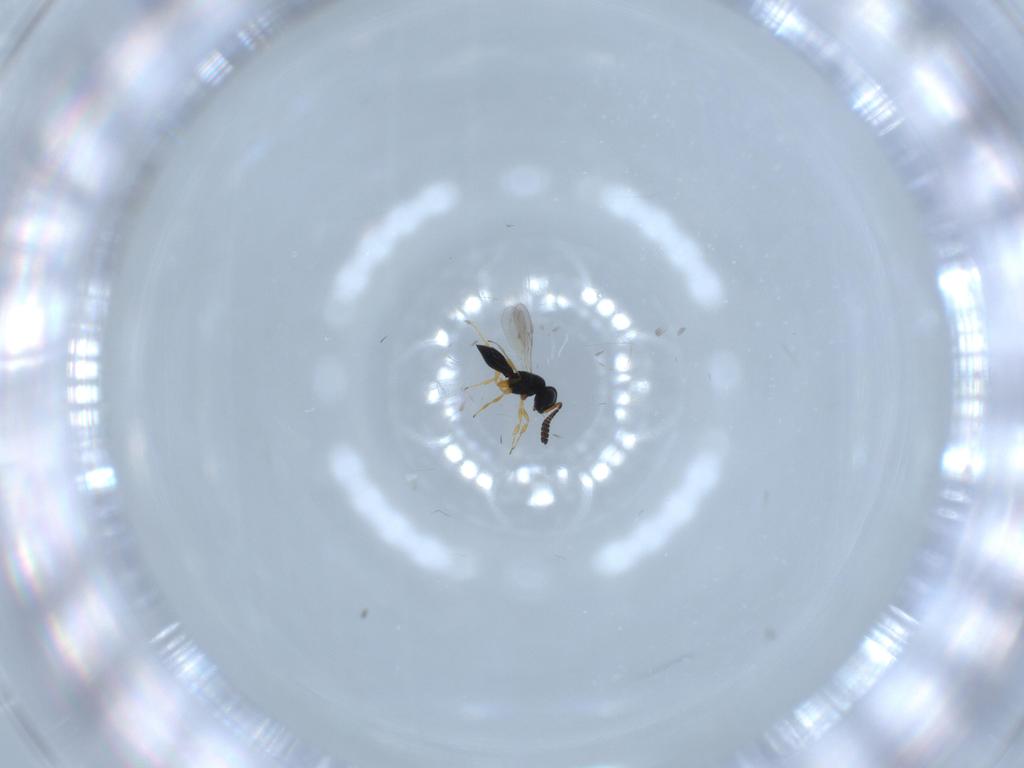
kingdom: Animalia
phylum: Arthropoda
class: Insecta
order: Hymenoptera
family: Scelionidae
